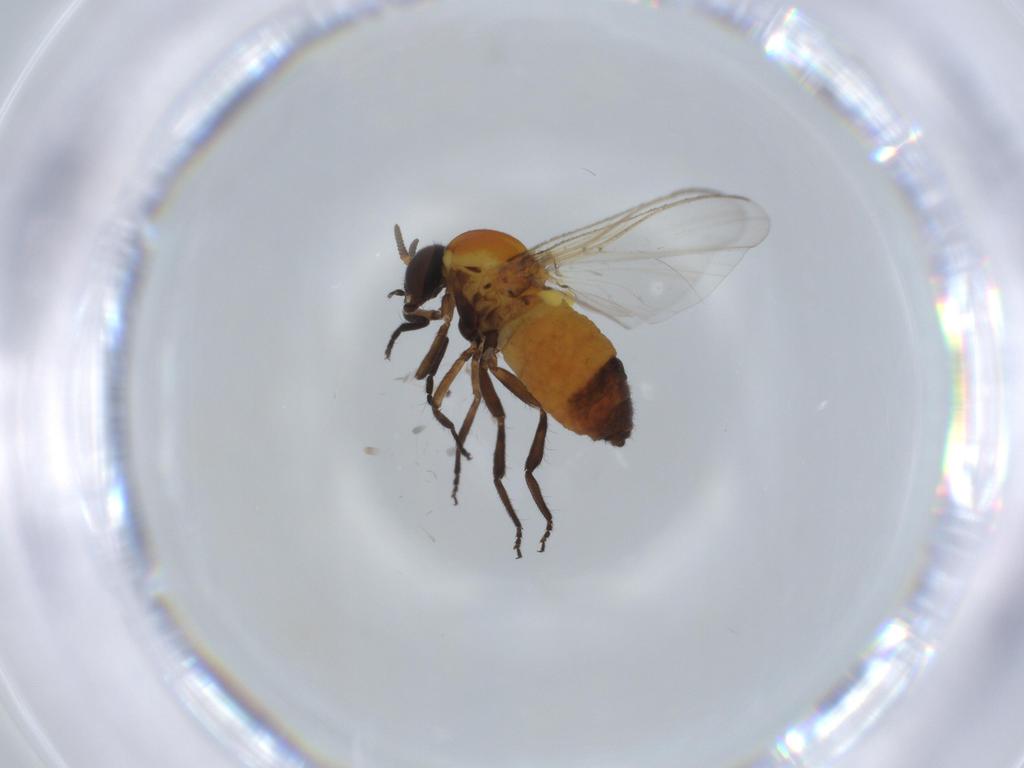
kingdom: Animalia
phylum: Arthropoda
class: Insecta
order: Diptera
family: Simuliidae
